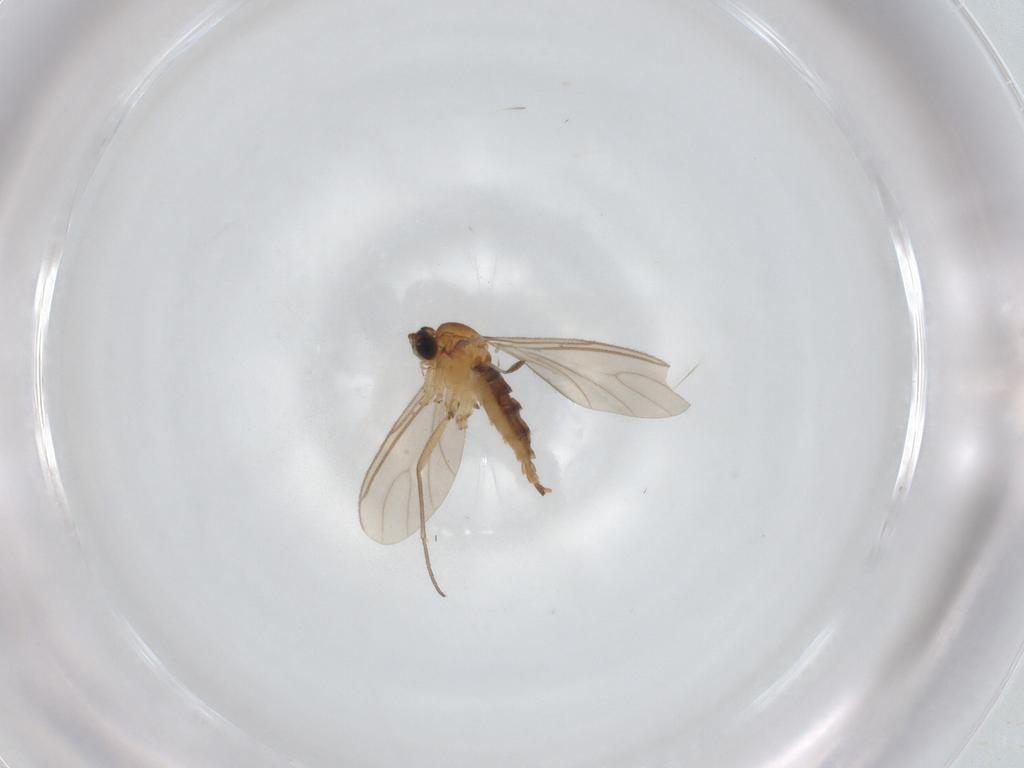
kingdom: Animalia
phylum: Arthropoda
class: Insecta
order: Diptera
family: Sciaridae
